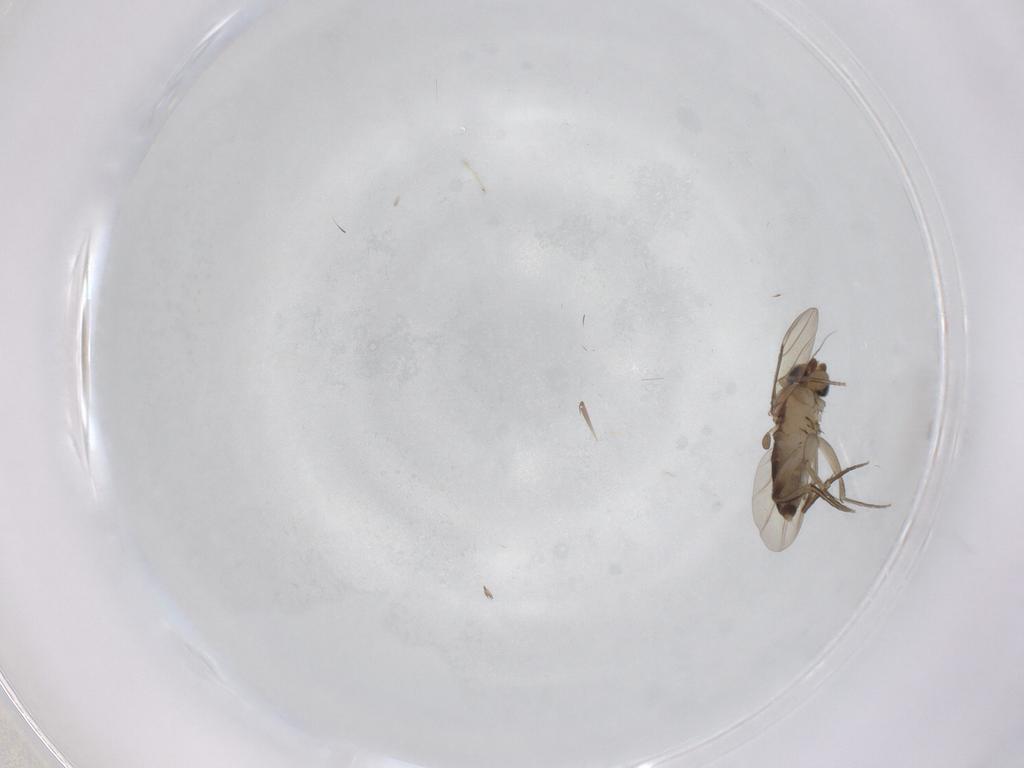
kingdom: Animalia
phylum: Arthropoda
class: Insecta
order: Diptera
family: Phoridae
